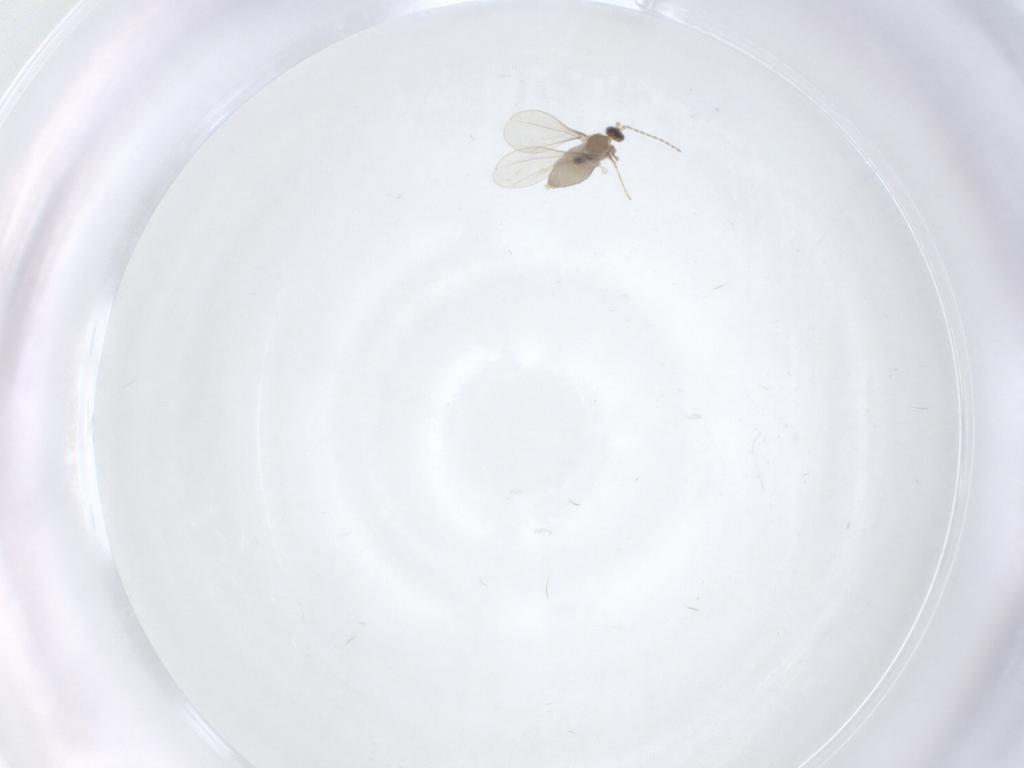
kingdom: Animalia
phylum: Arthropoda
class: Insecta
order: Diptera
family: Cecidomyiidae
